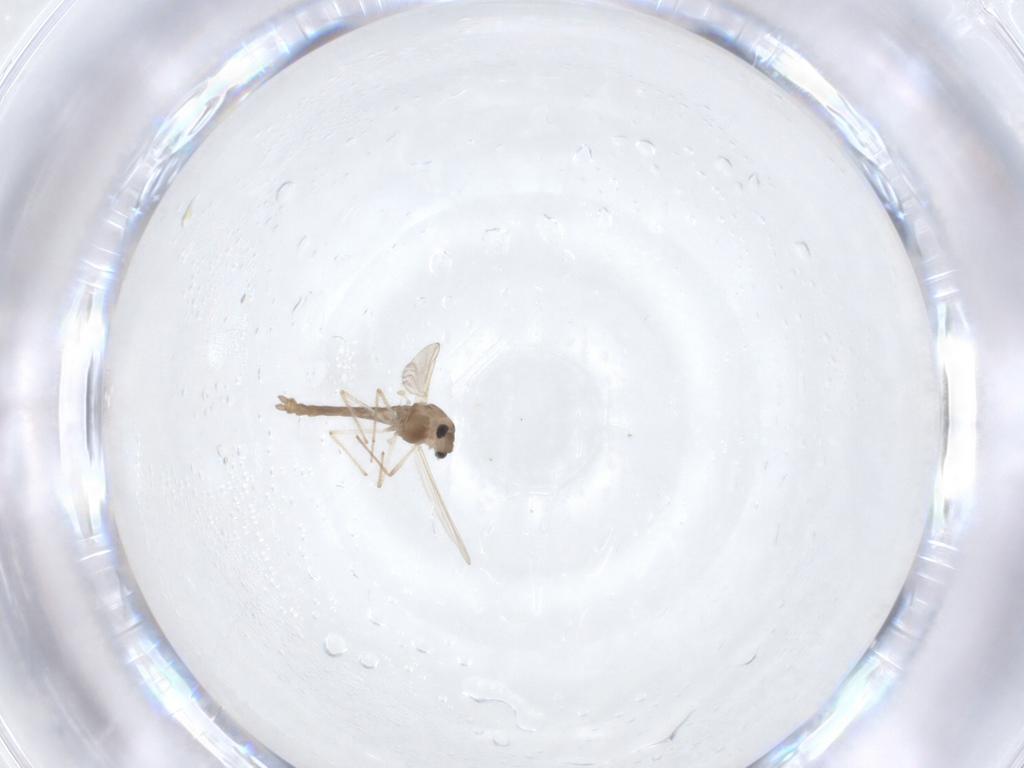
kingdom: Animalia
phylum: Arthropoda
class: Insecta
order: Diptera
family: Chironomidae
